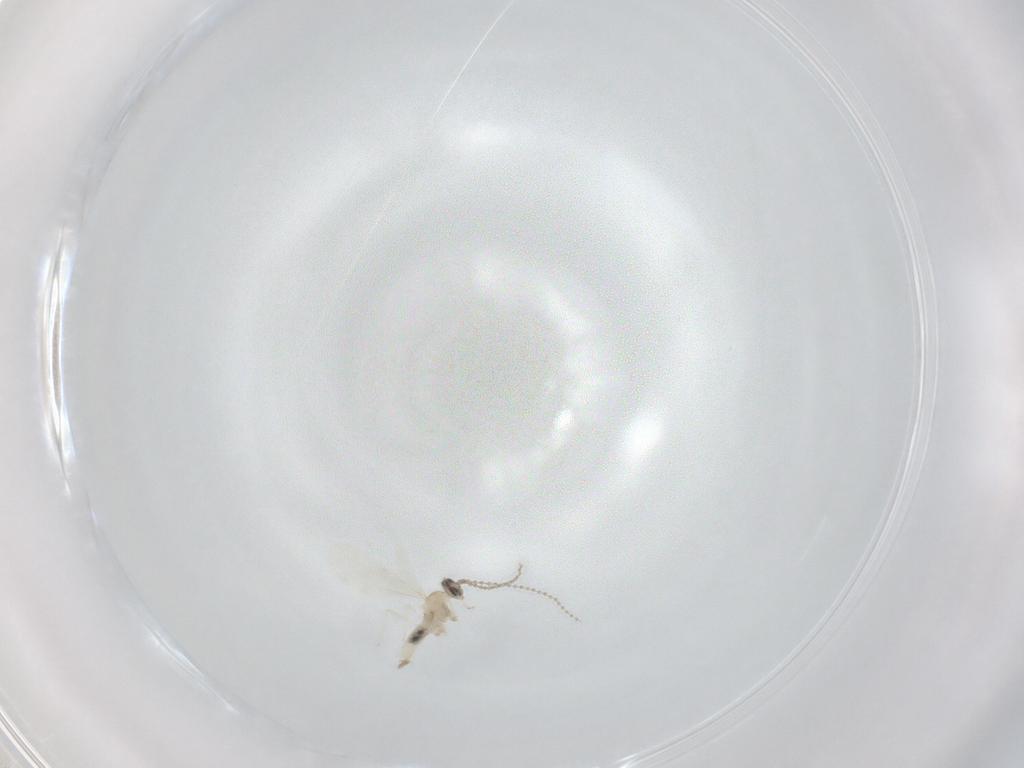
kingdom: Animalia
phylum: Arthropoda
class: Insecta
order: Diptera
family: Cecidomyiidae
